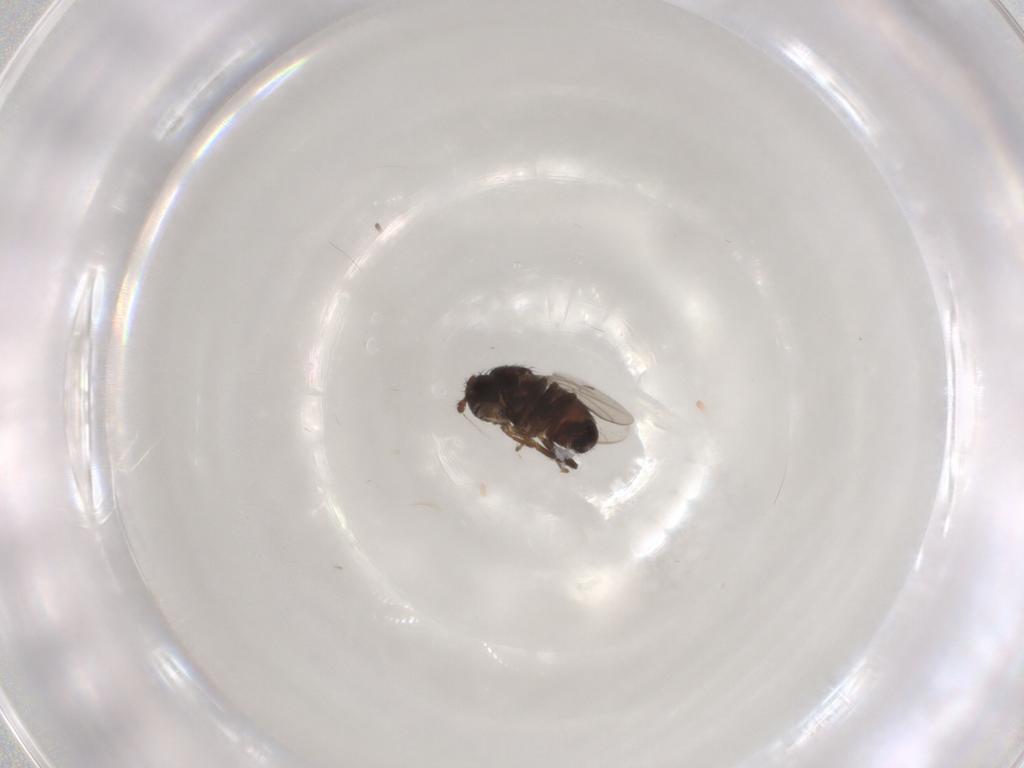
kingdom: Animalia
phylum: Arthropoda
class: Insecta
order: Diptera
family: Sphaeroceridae
